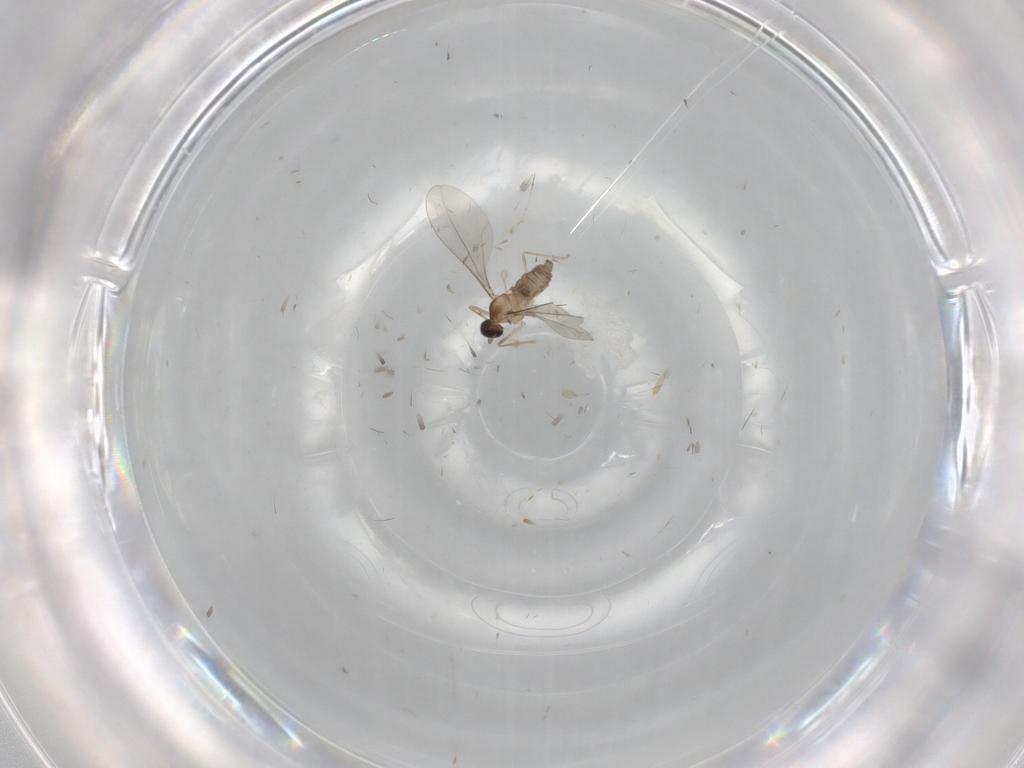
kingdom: Animalia
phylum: Arthropoda
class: Insecta
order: Diptera
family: Cecidomyiidae
